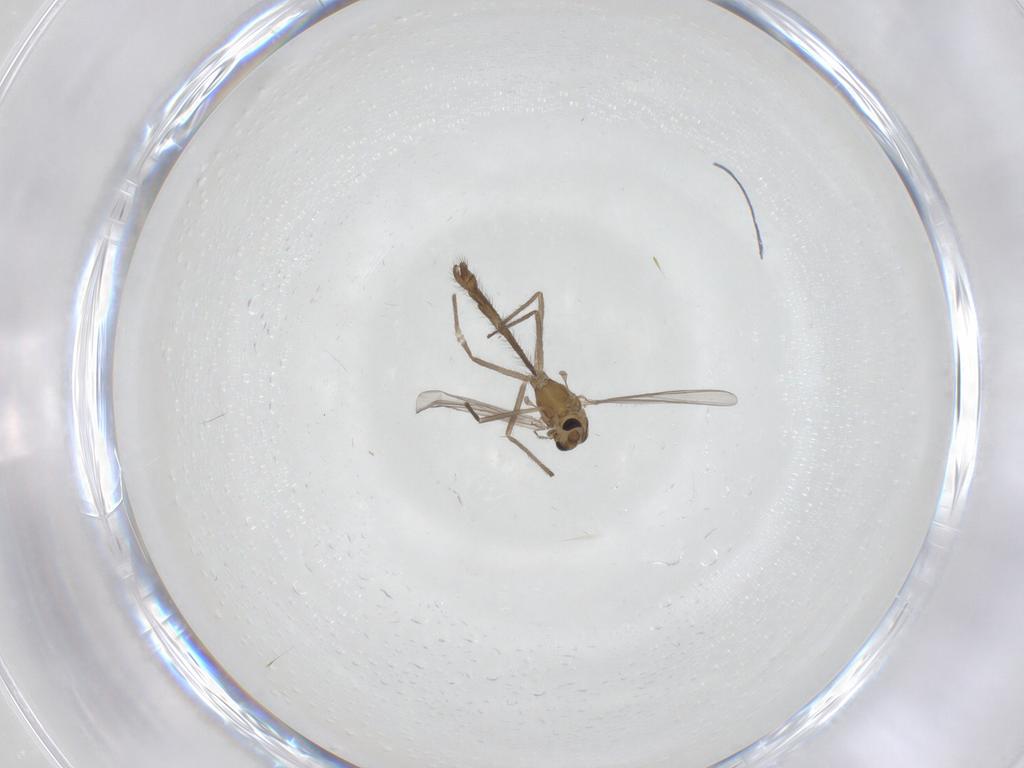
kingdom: Animalia
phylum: Arthropoda
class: Insecta
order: Diptera
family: Chironomidae
